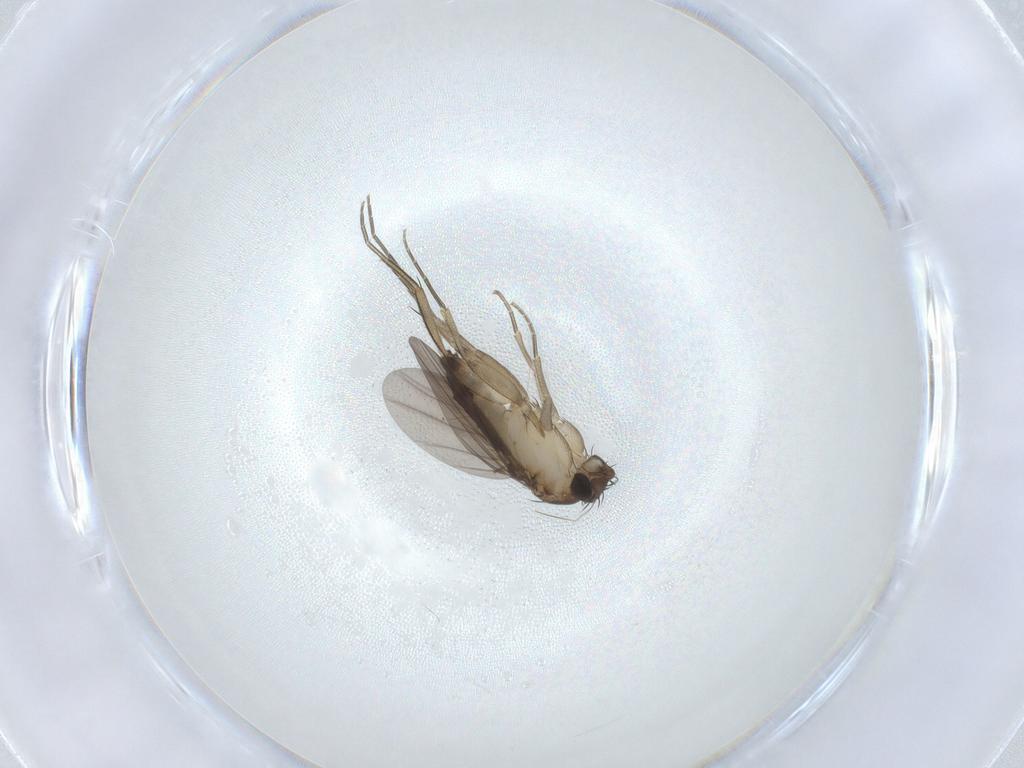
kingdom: Animalia
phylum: Arthropoda
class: Insecta
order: Diptera
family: Phoridae
